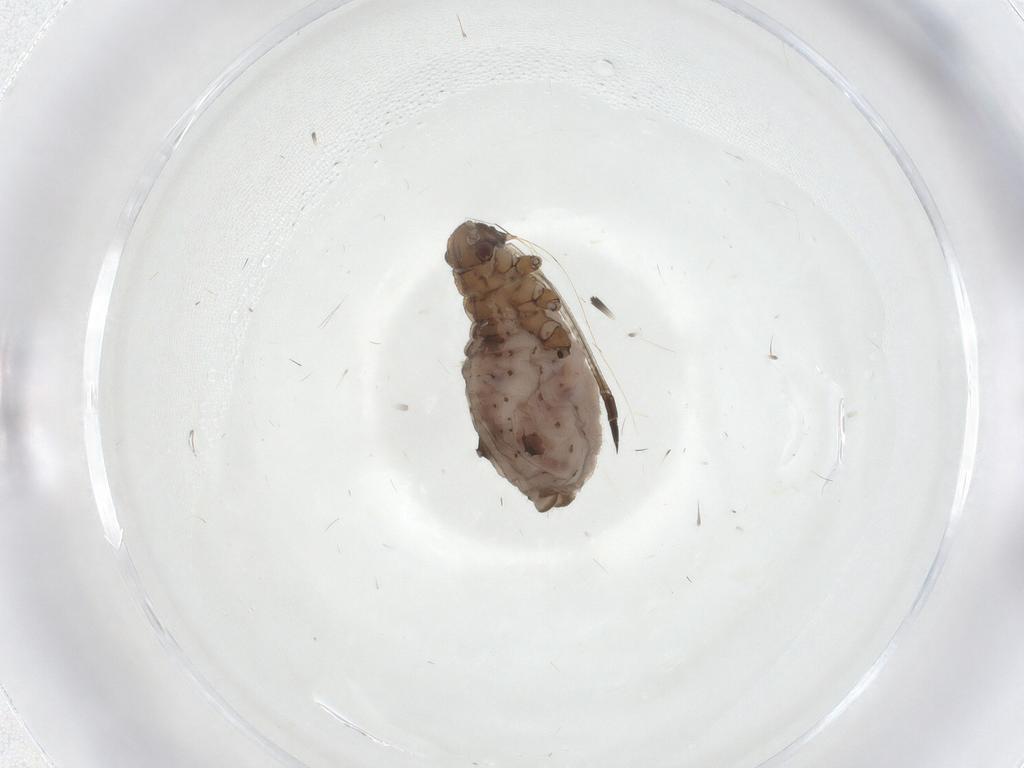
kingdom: Animalia
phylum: Arthropoda
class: Insecta
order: Hemiptera
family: Aphididae
